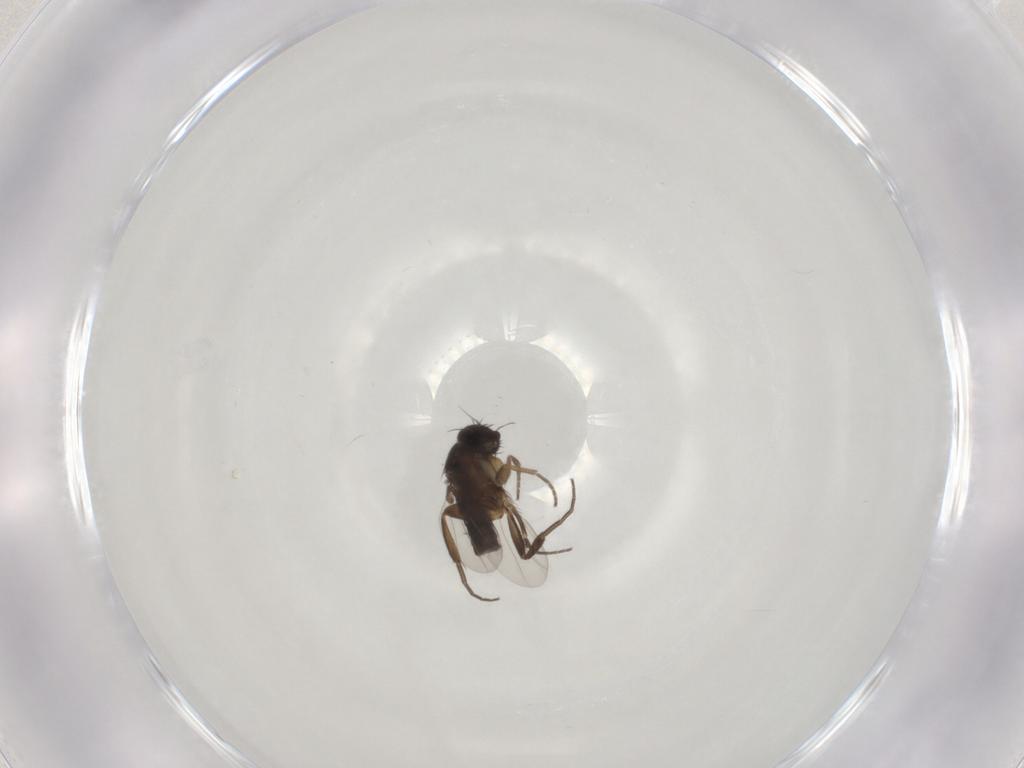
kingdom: Animalia
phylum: Arthropoda
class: Insecta
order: Diptera
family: Phoridae
